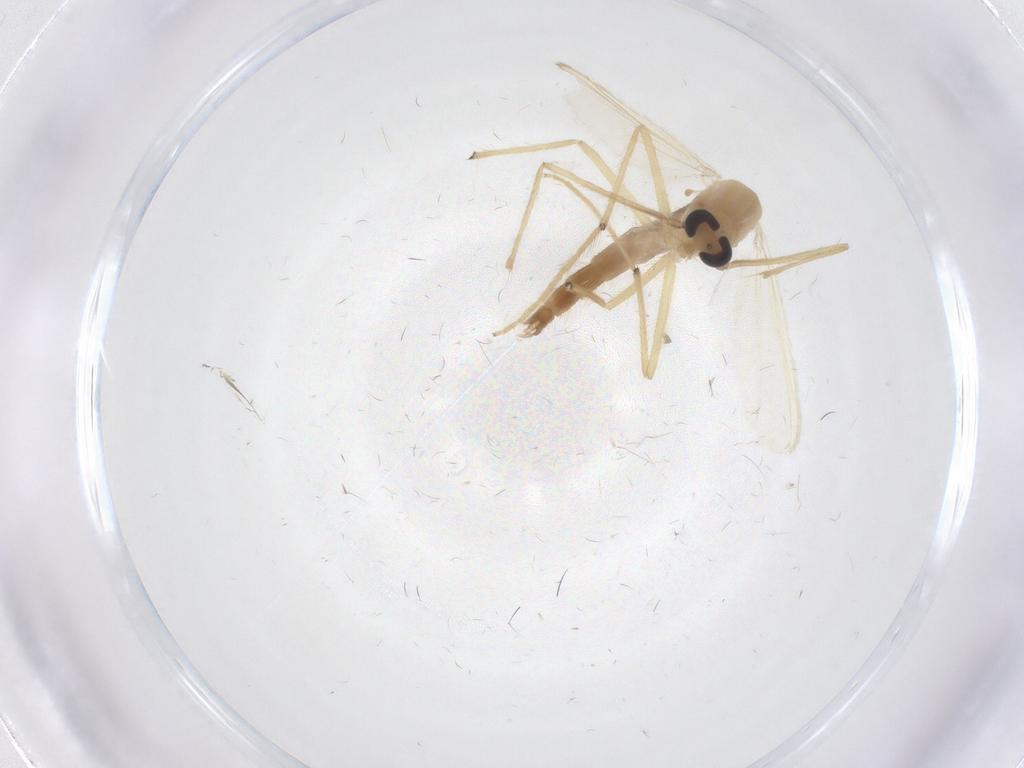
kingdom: Animalia
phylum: Arthropoda
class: Insecta
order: Diptera
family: Chironomidae
